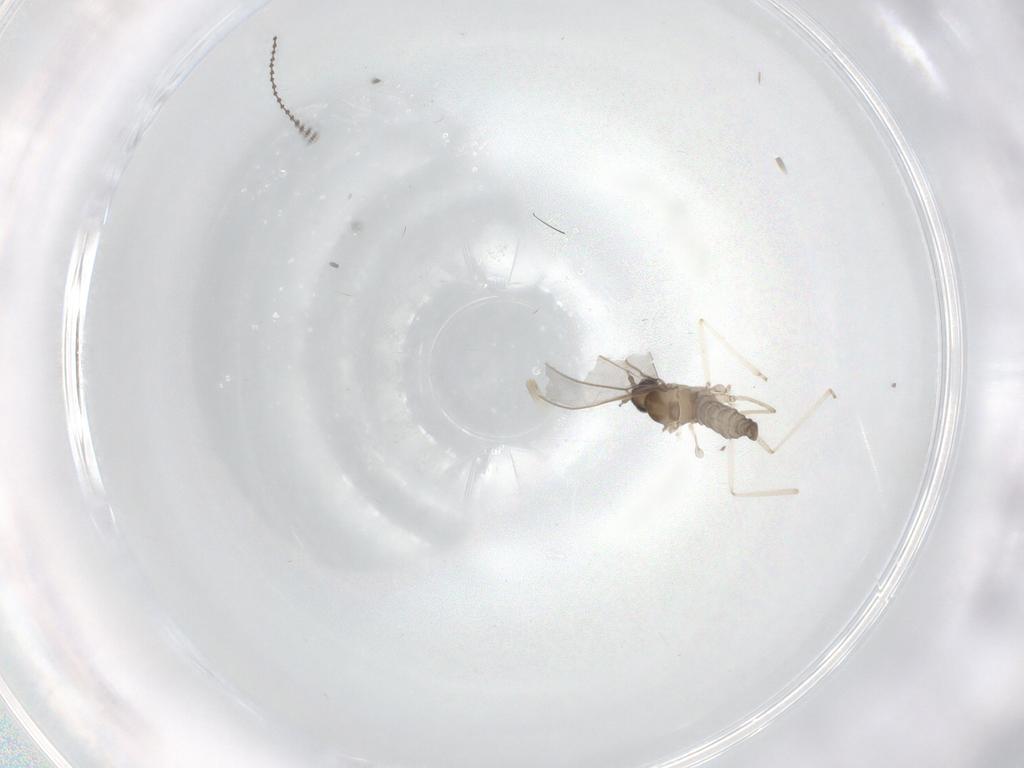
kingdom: Animalia
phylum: Arthropoda
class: Insecta
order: Diptera
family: Cecidomyiidae
